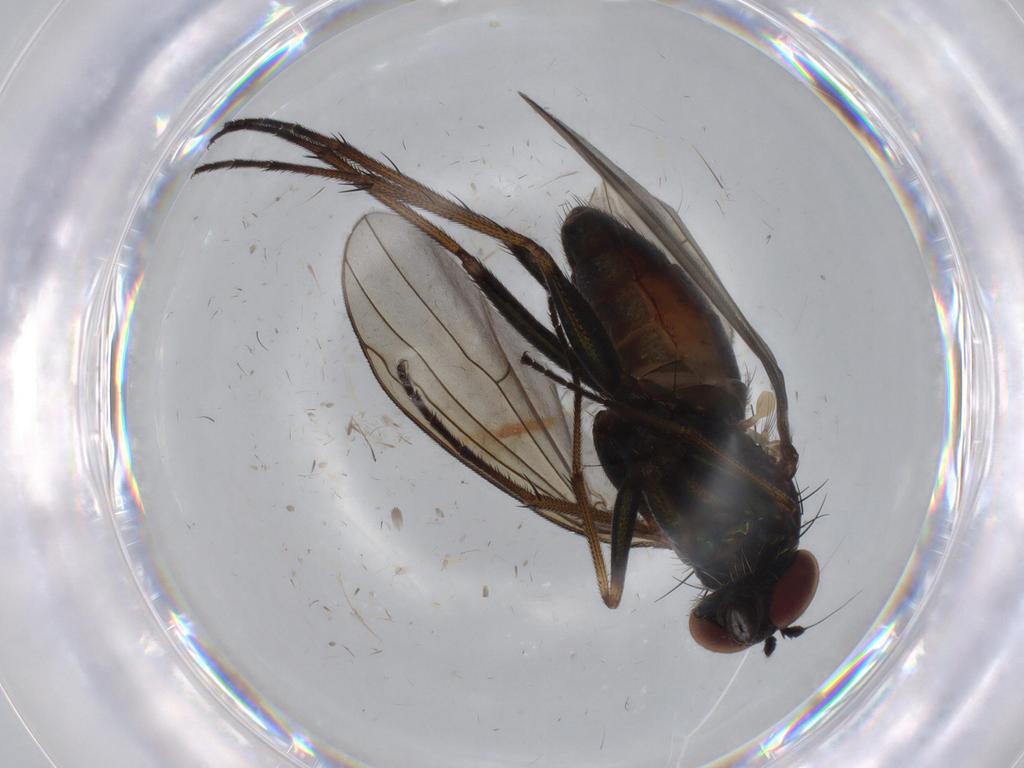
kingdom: Animalia
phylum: Arthropoda
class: Insecta
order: Diptera
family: Dolichopodidae
